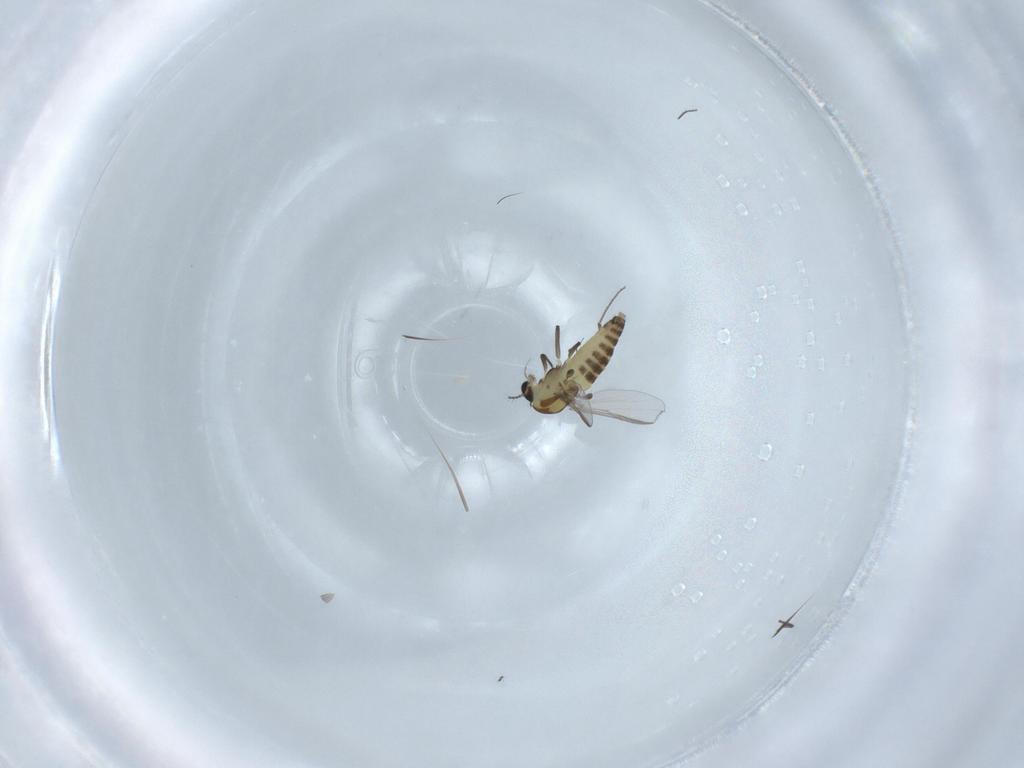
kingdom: Animalia
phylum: Arthropoda
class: Insecta
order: Diptera
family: Chironomidae
